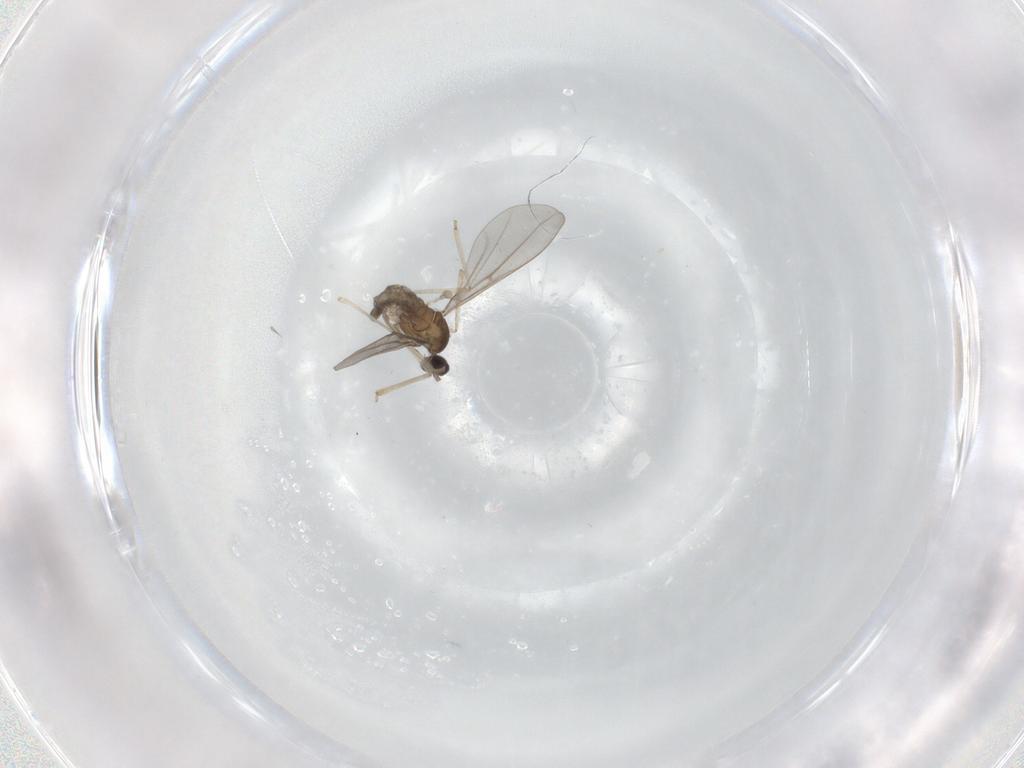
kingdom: Animalia
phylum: Arthropoda
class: Insecta
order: Diptera
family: Cecidomyiidae
